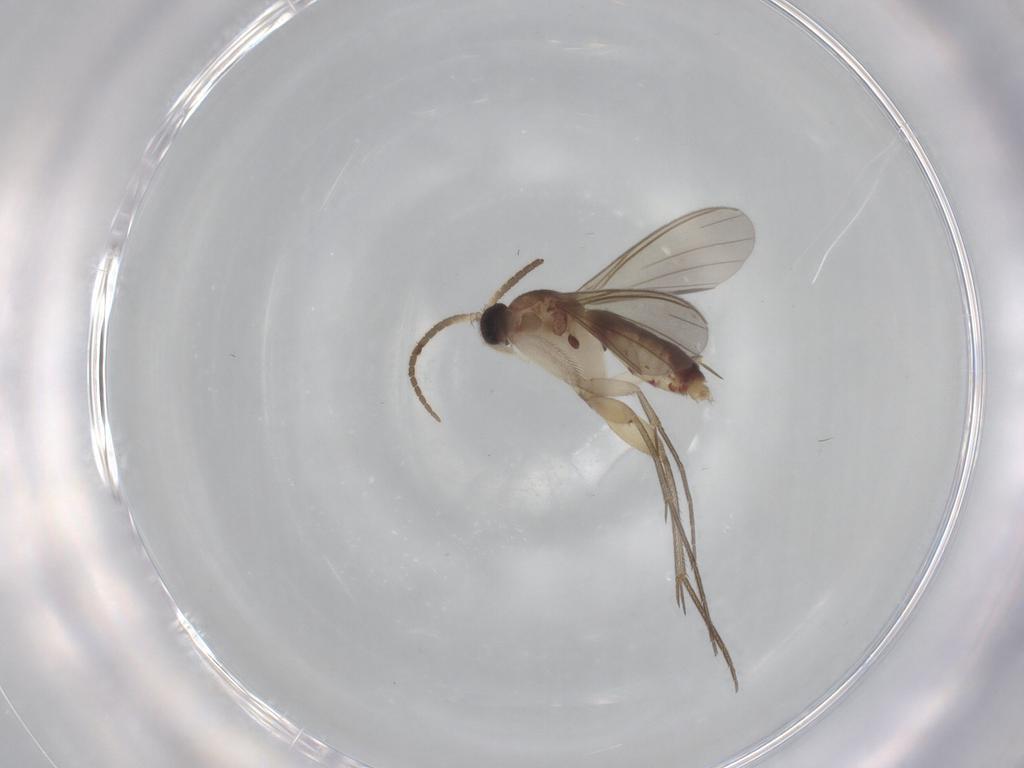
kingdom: Animalia
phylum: Arthropoda
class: Insecta
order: Diptera
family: Mycetophilidae
